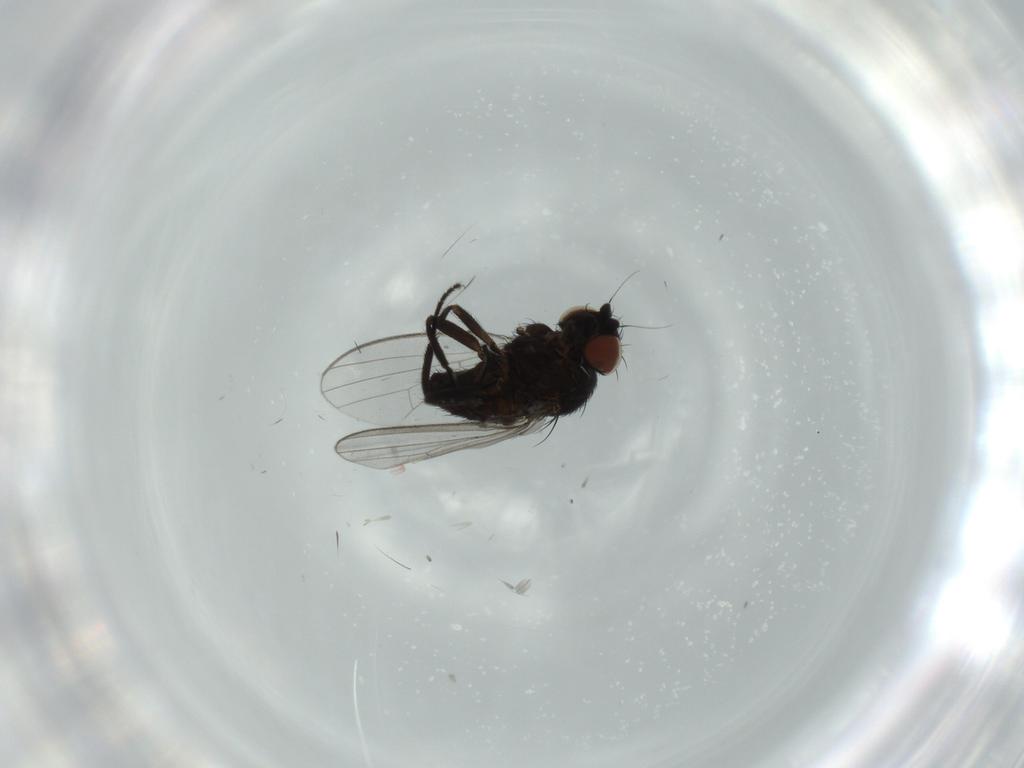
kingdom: Animalia
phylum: Arthropoda
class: Insecta
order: Diptera
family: Milichiidae
